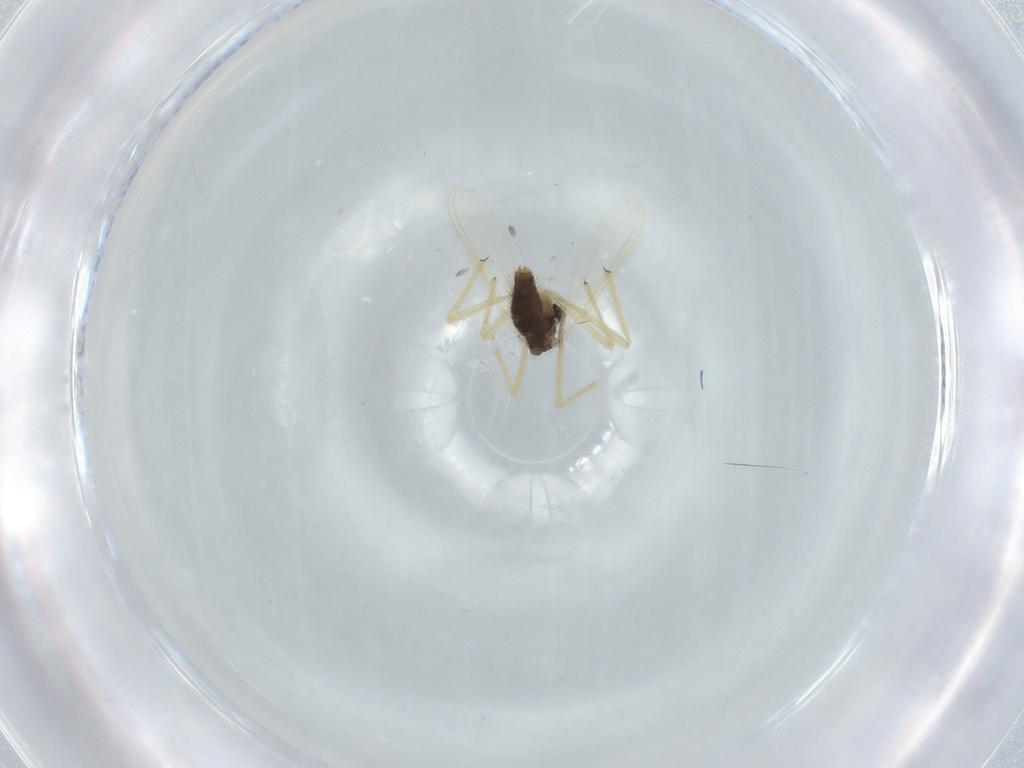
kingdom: Animalia
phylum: Arthropoda
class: Insecta
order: Diptera
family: Chironomidae
